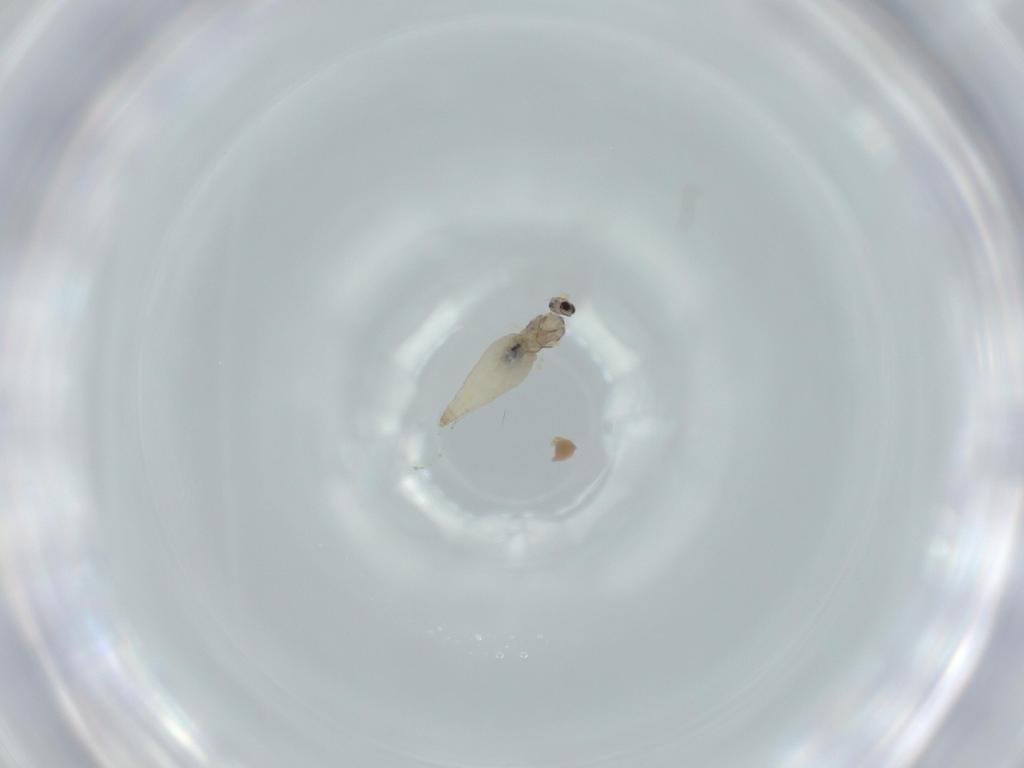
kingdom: Animalia
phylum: Arthropoda
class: Insecta
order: Diptera
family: Cecidomyiidae
